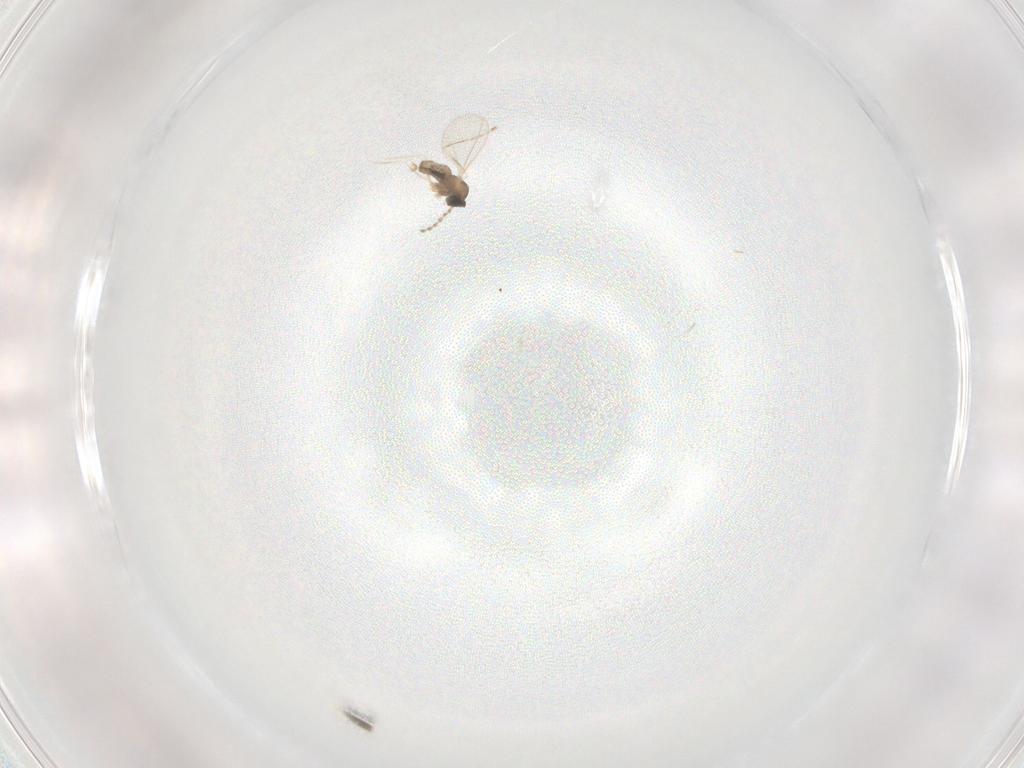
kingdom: Animalia
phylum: Arthropoda
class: Insecta
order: Diptera
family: Cecidomyiidae
